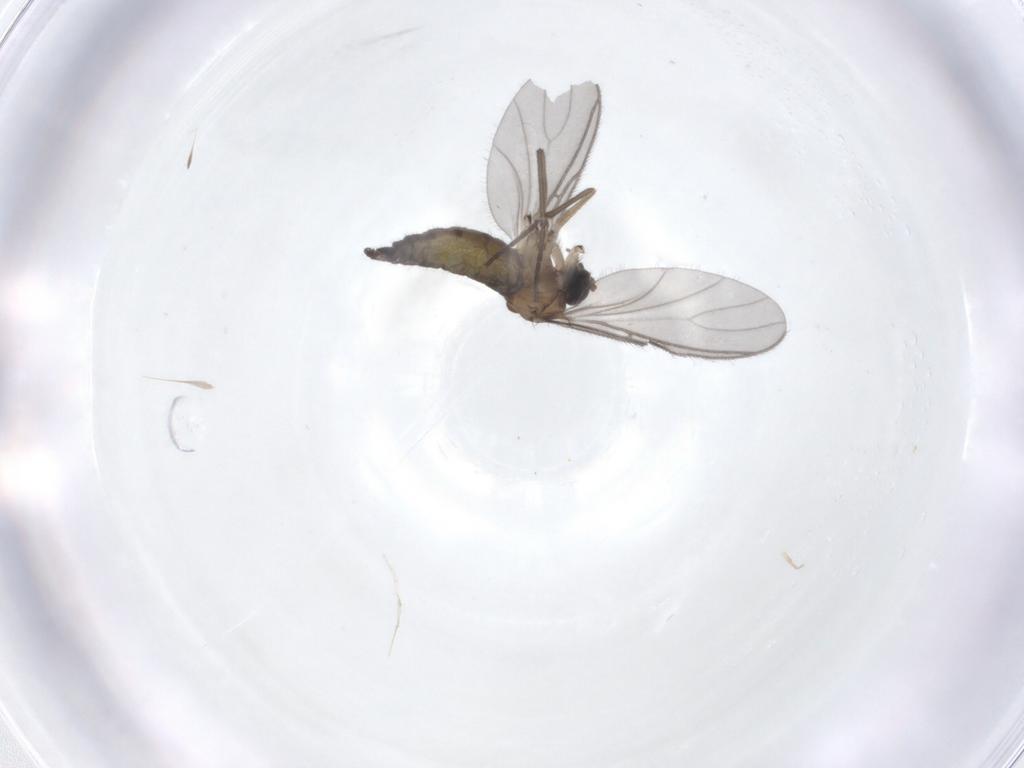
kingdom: Animalia
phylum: Arthropoda
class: Insecta
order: Diptera
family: Sciaridae
